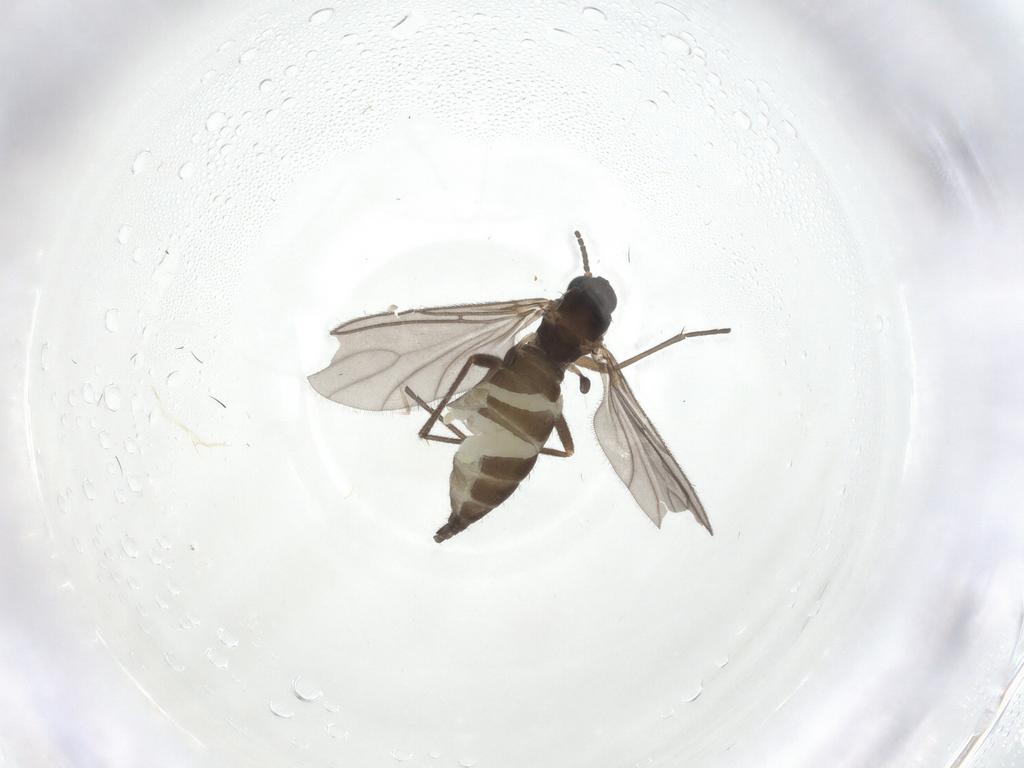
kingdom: Animalia
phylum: Arthropoda
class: Insecta
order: Diptera
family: Sciaridae
